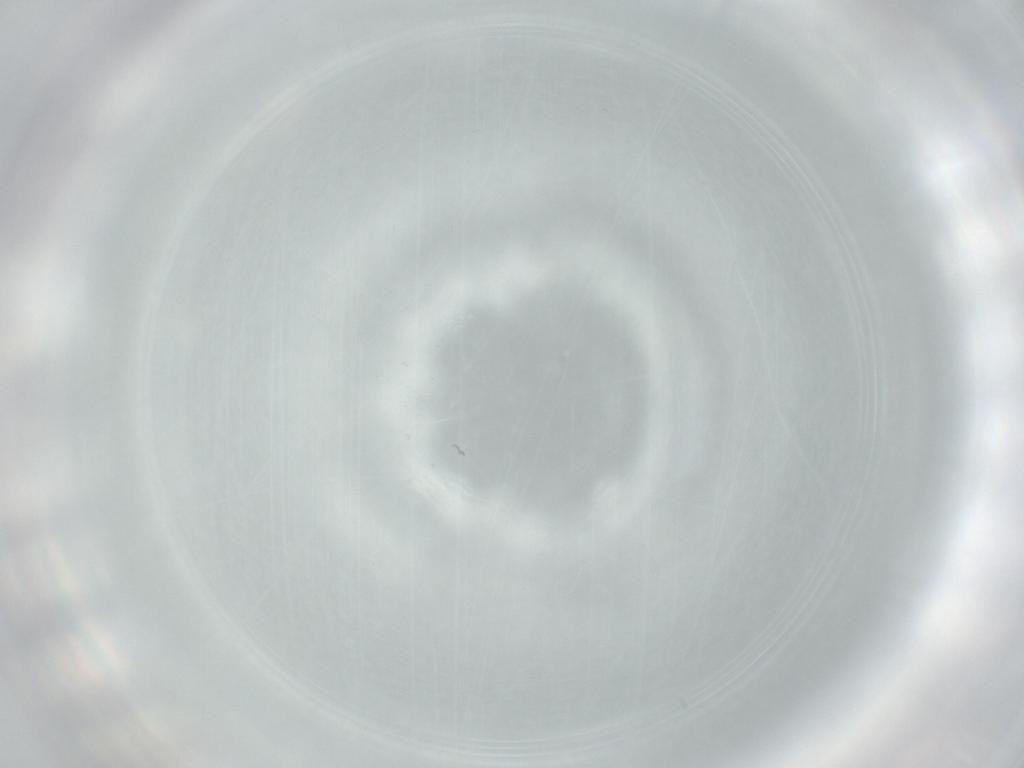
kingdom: Animalia
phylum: Arthropoda
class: Insecta
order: Hymenoptera
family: Mymaridae
